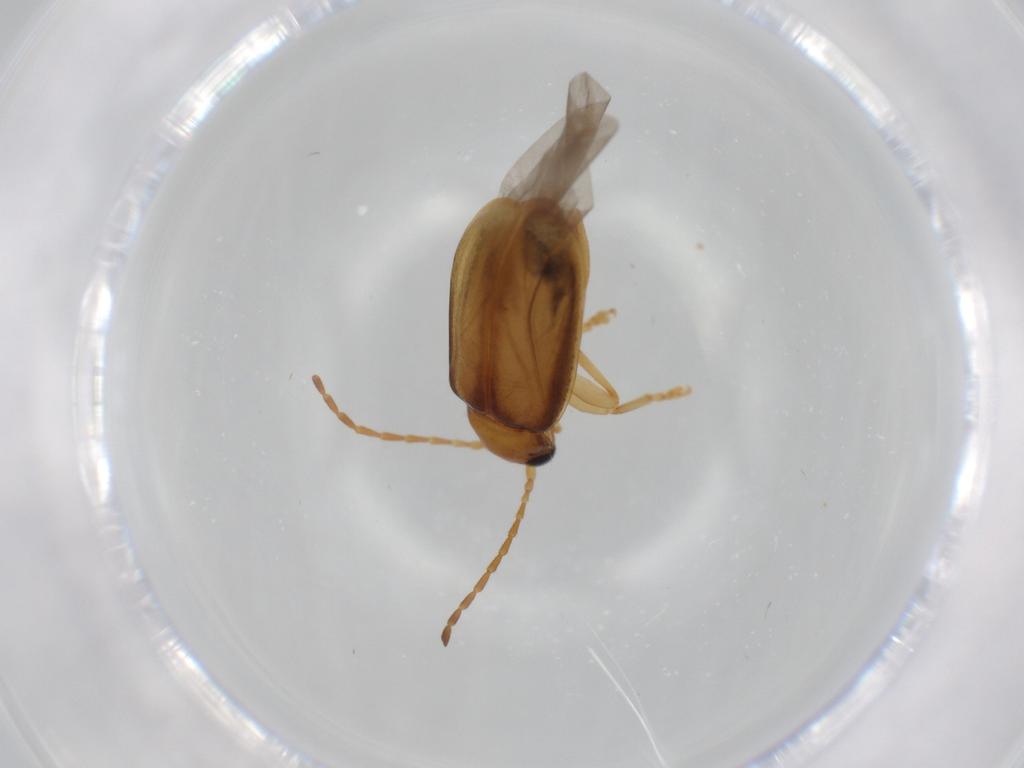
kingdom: Animalia
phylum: Arthropoda
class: Insecta
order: Coleoptera
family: Chrysomelidae
